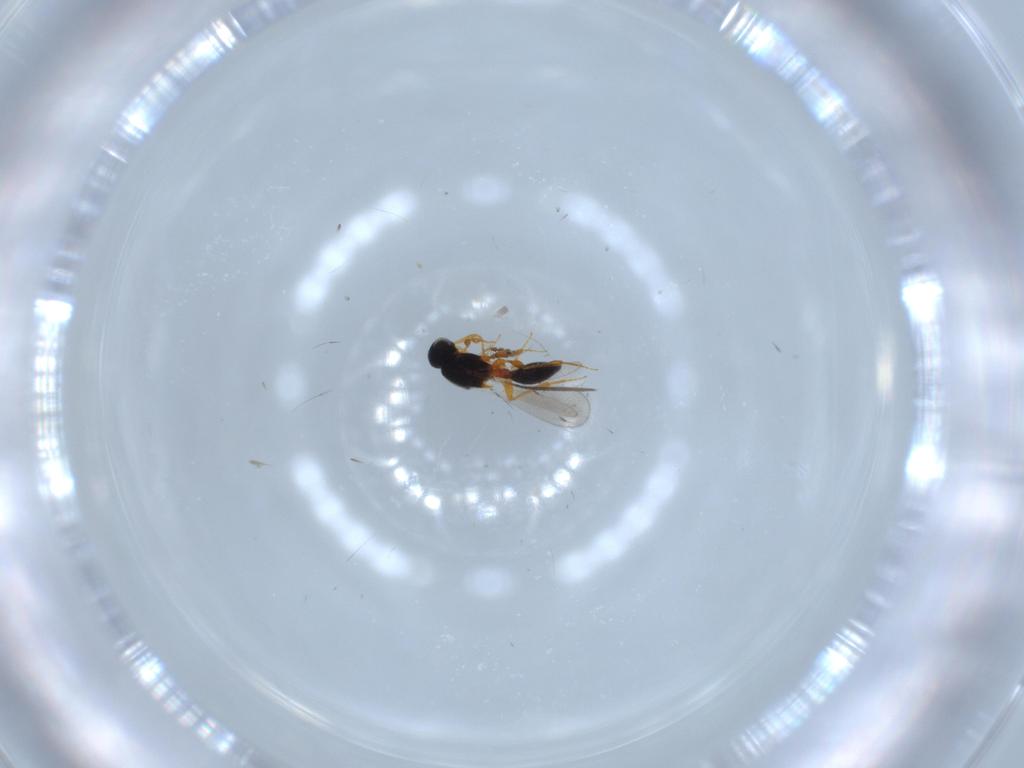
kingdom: Animalia
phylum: Arthropoda
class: Insecta
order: Hymenoptera
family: Platygastridae
